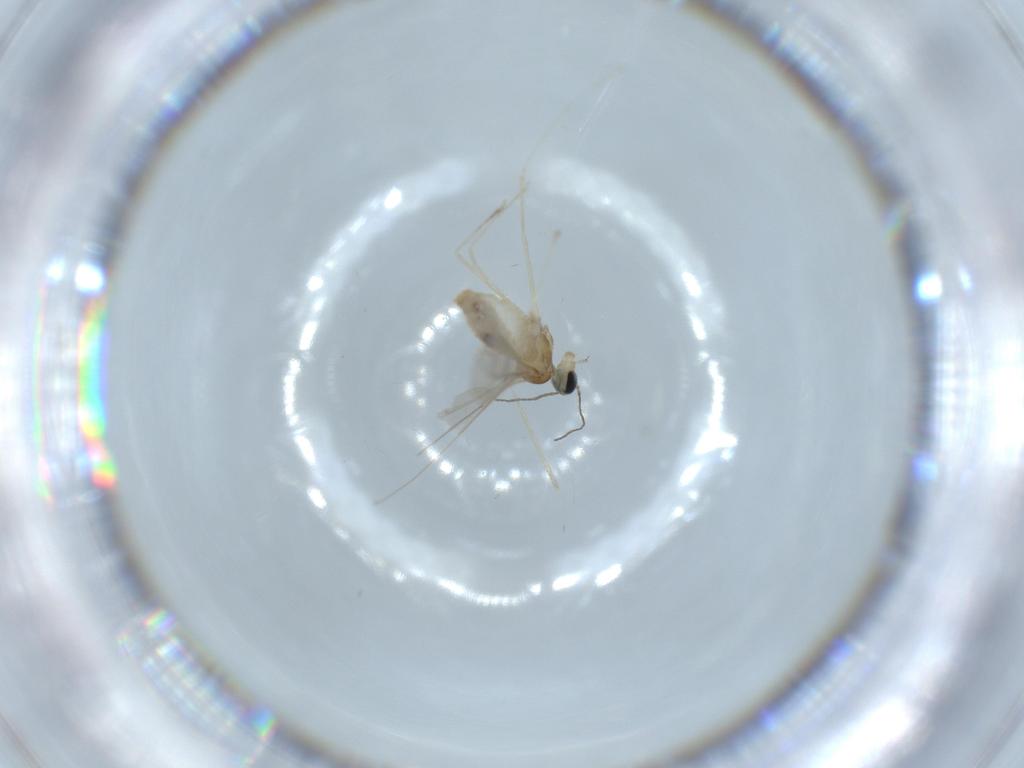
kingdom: Animalia
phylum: Arthropoda
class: Insecta
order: Diptera
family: Cecidomyiidae
